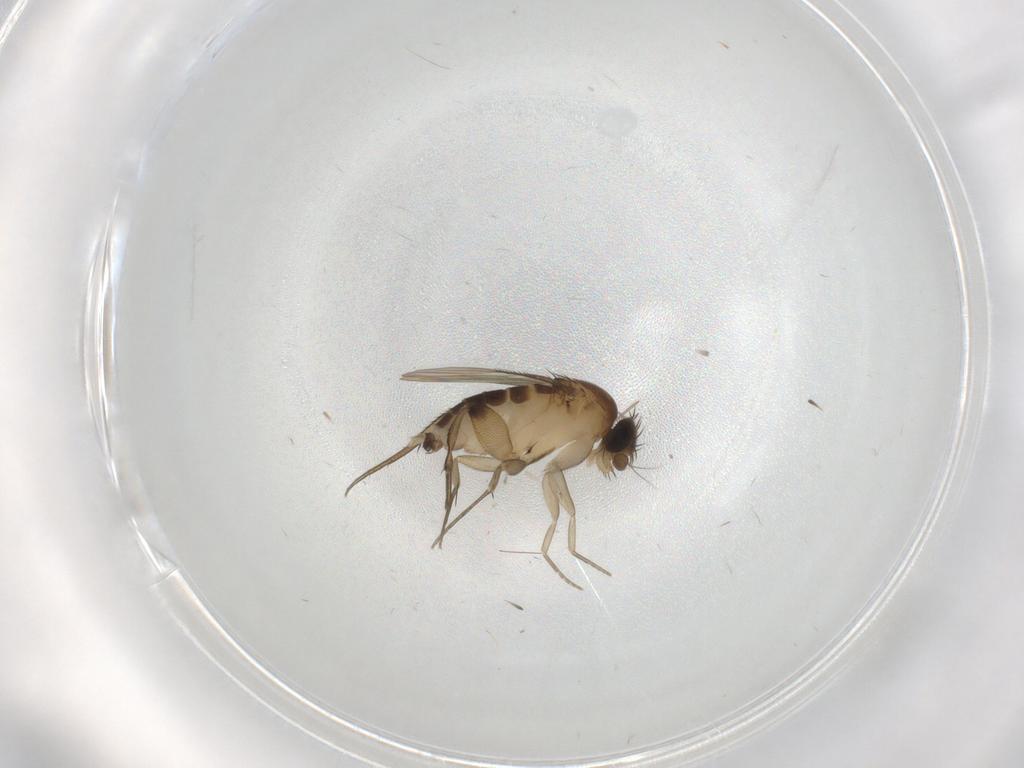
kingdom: Animalia
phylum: Arthropoda
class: Insecta
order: Diptera
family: Phoridae
